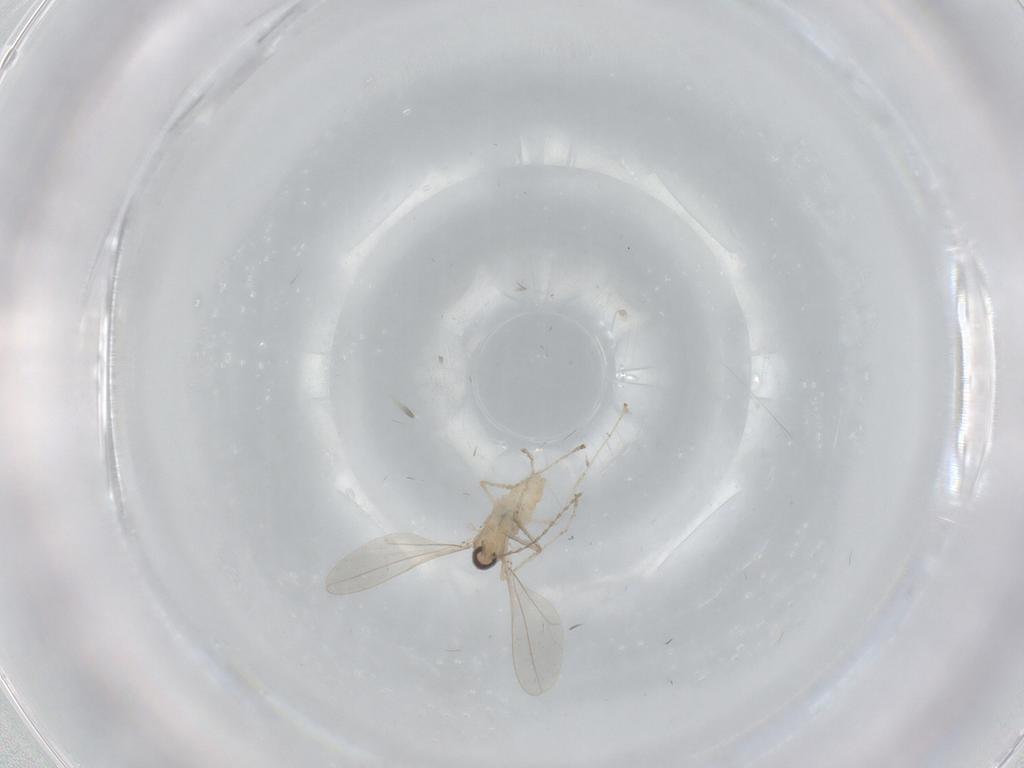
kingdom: Animalia
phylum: Arthropoda
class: Insecta
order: Diptera
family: Cecidomyiidae
